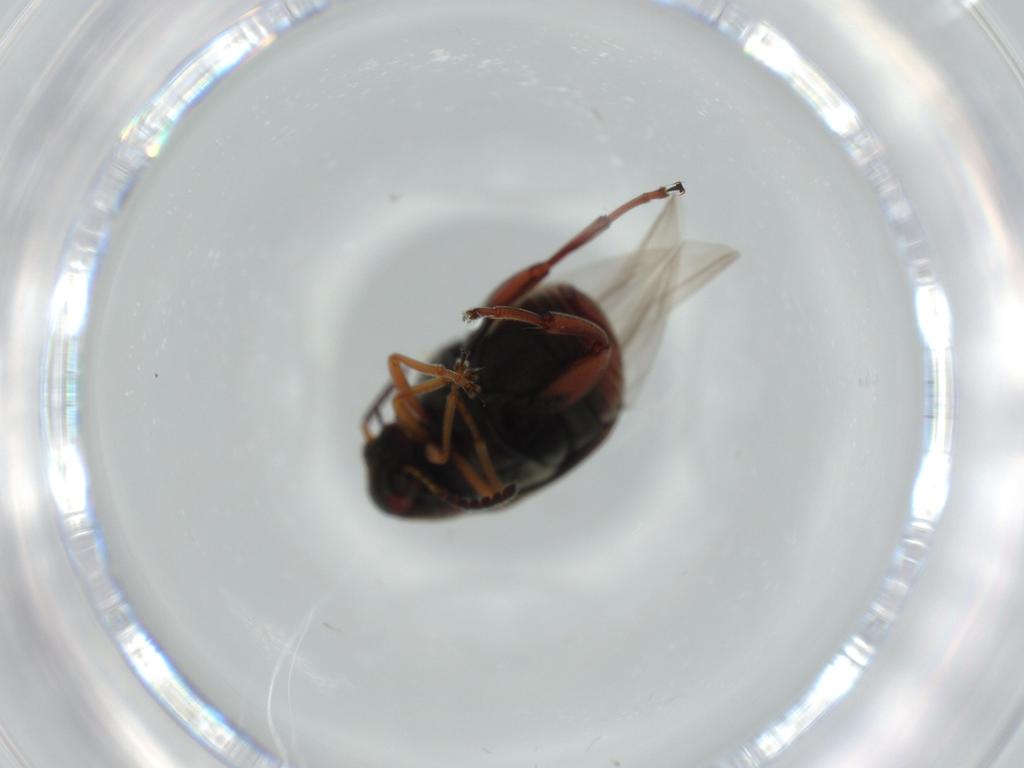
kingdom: Animalia
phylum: Arthropoda
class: Insecta
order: Coleoptera
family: Chrysomelidae
